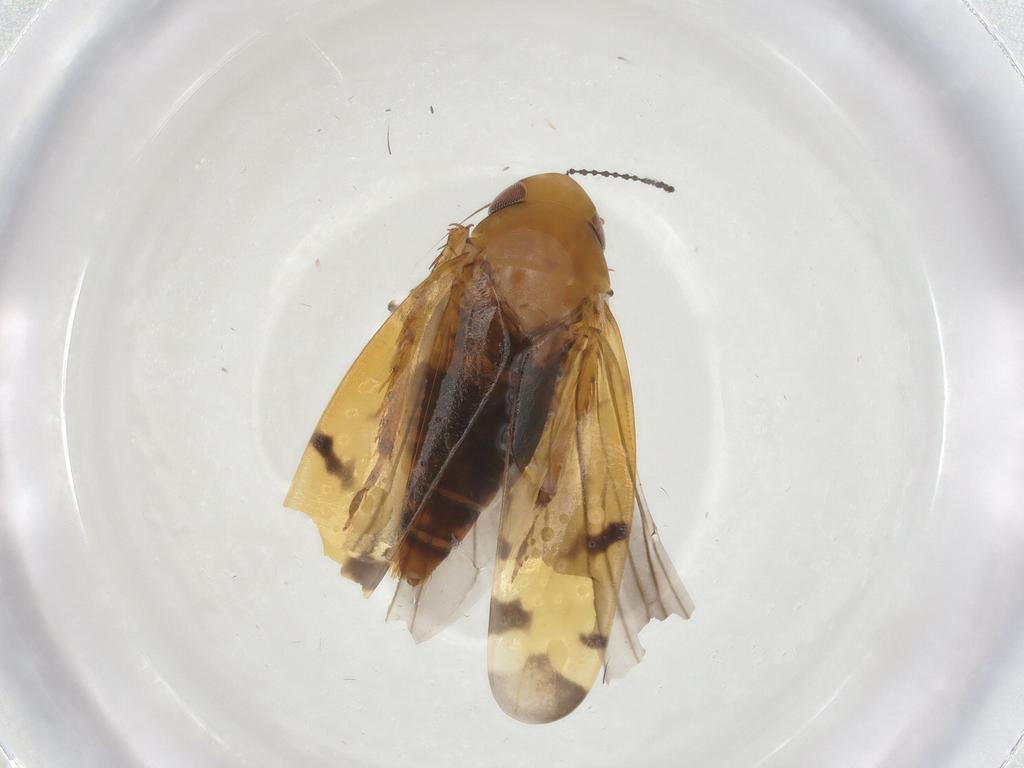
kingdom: Animalia
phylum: Arthropoda
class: Insecta
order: Hemiptera
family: Cicadellidae
